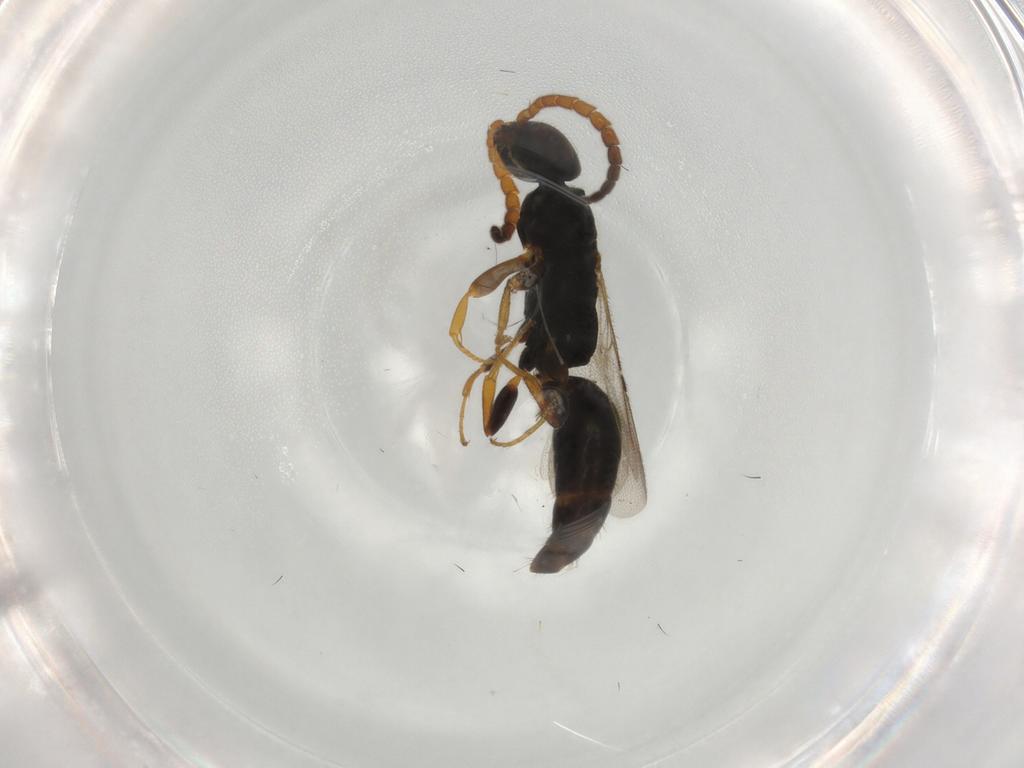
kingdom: Animalia
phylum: Arthropoda
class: Insecta
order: Hymenoptera
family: Bethylidae
